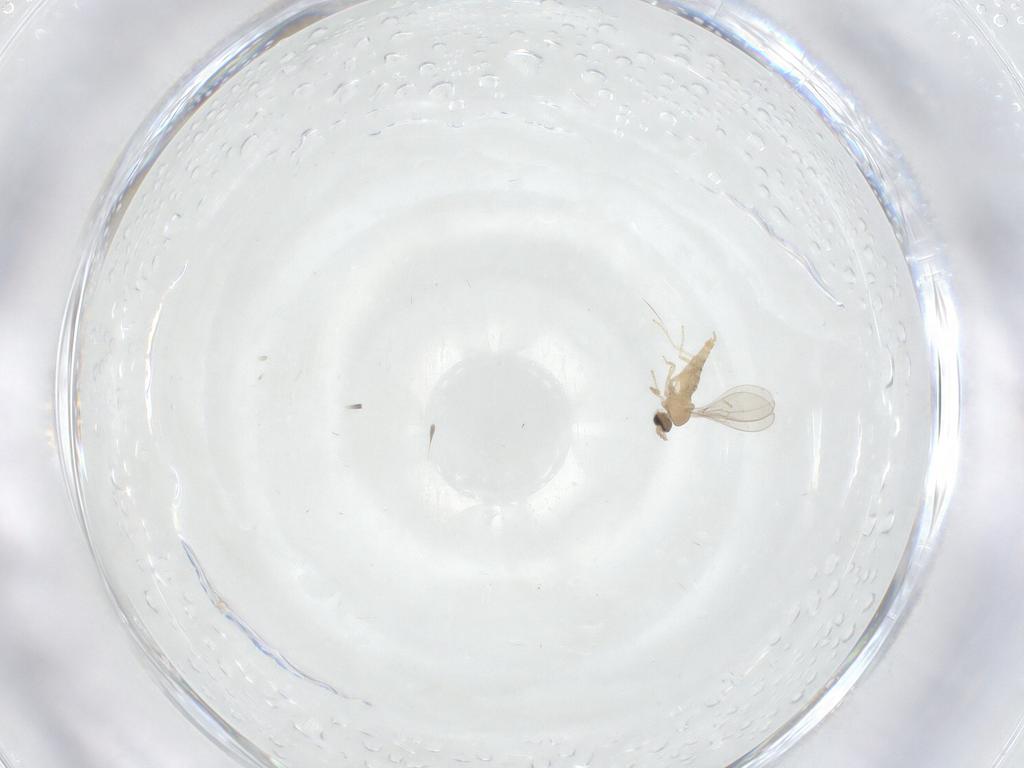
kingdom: Animalia
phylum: Arthropoda
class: Insecta
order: Diptera
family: Cecidomyiidae
